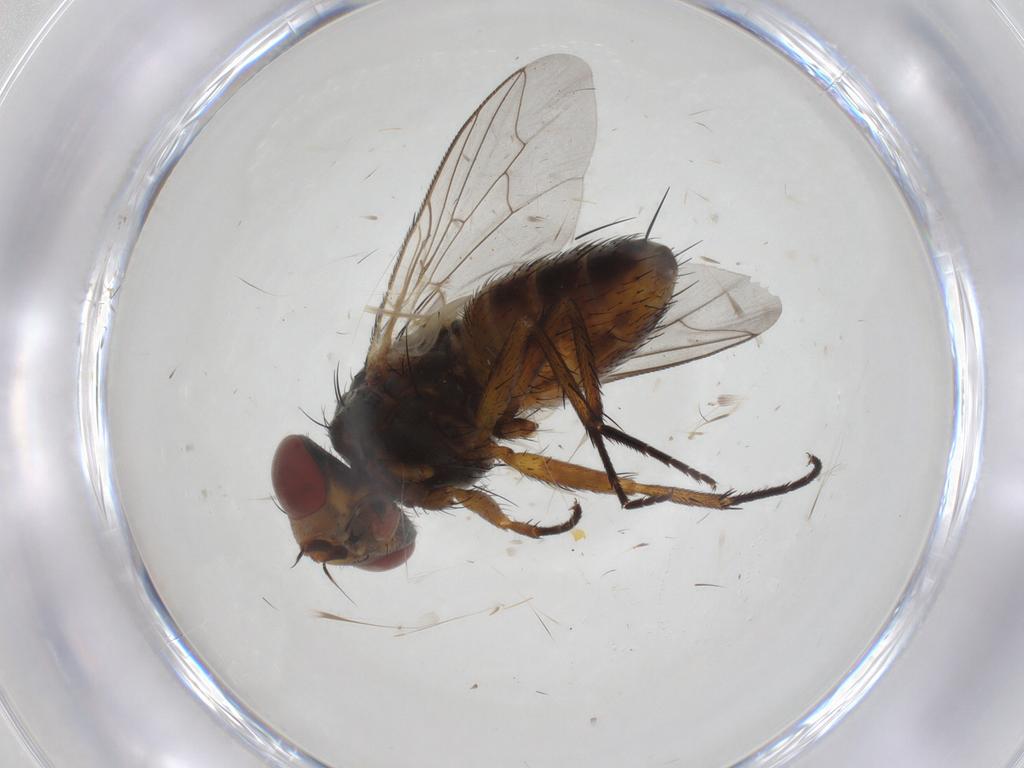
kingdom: Animalia
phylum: Arthropoda
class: Insecta
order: Diptera
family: Sarcophagidae
